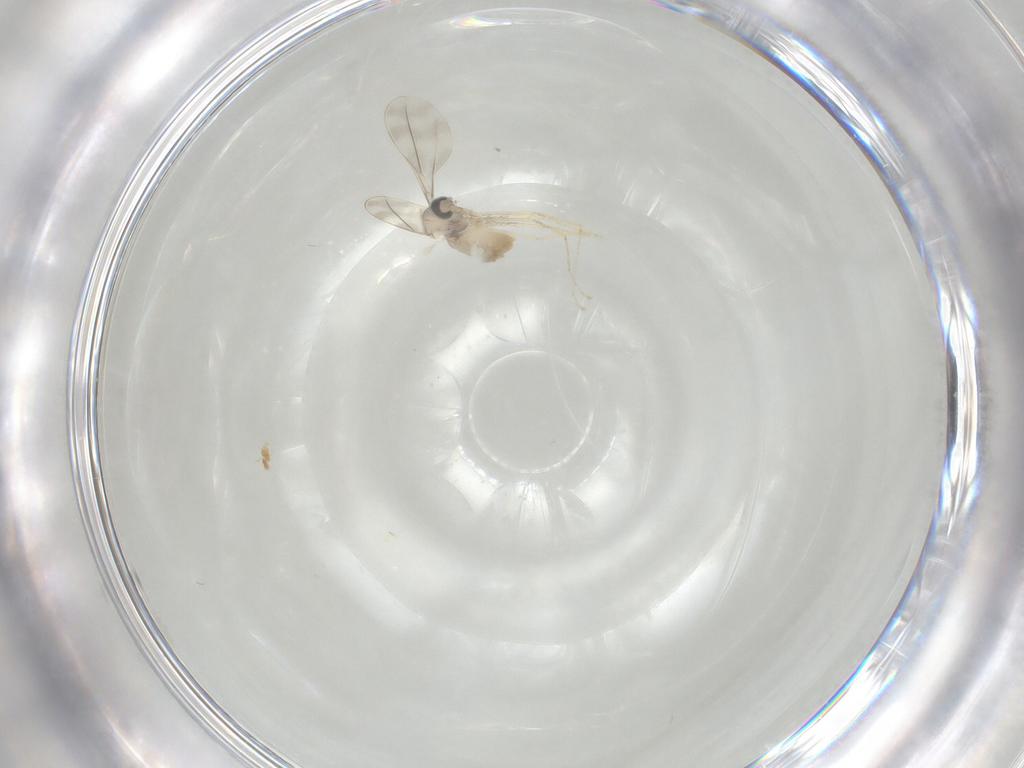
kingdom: Animalia
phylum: Arthropoda
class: Insecta
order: Diptera
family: Cecidomyiidae
